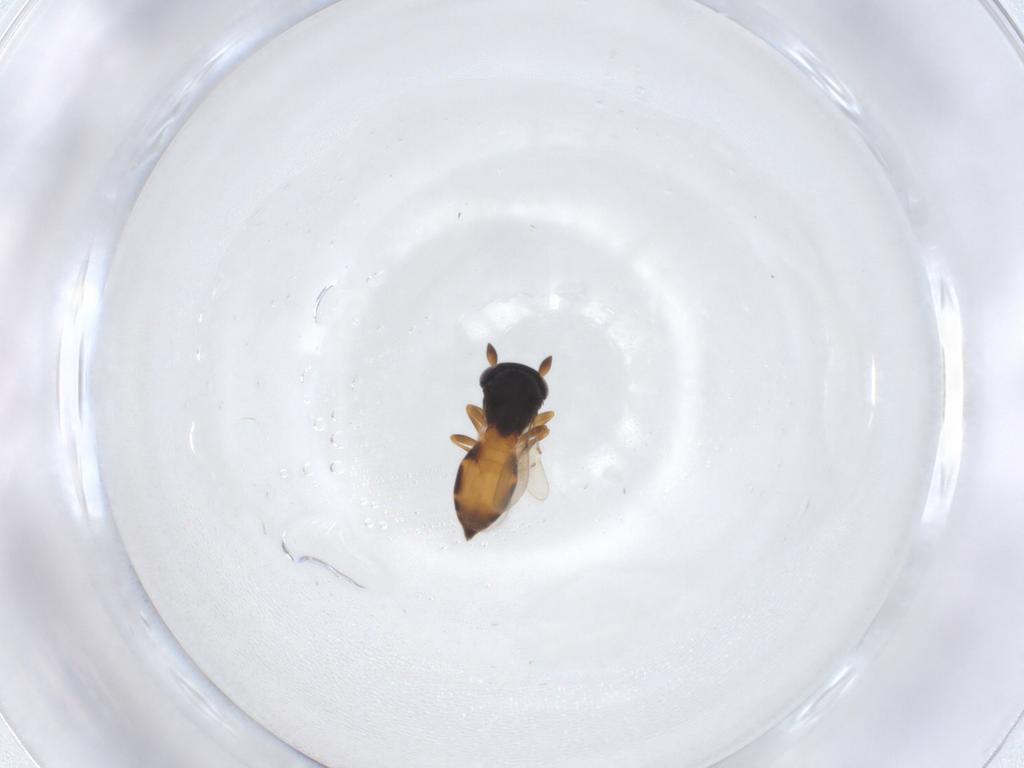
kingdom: Animalia
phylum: Arthropoda
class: Insecta
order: Hymenoptera
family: Scelionidae
